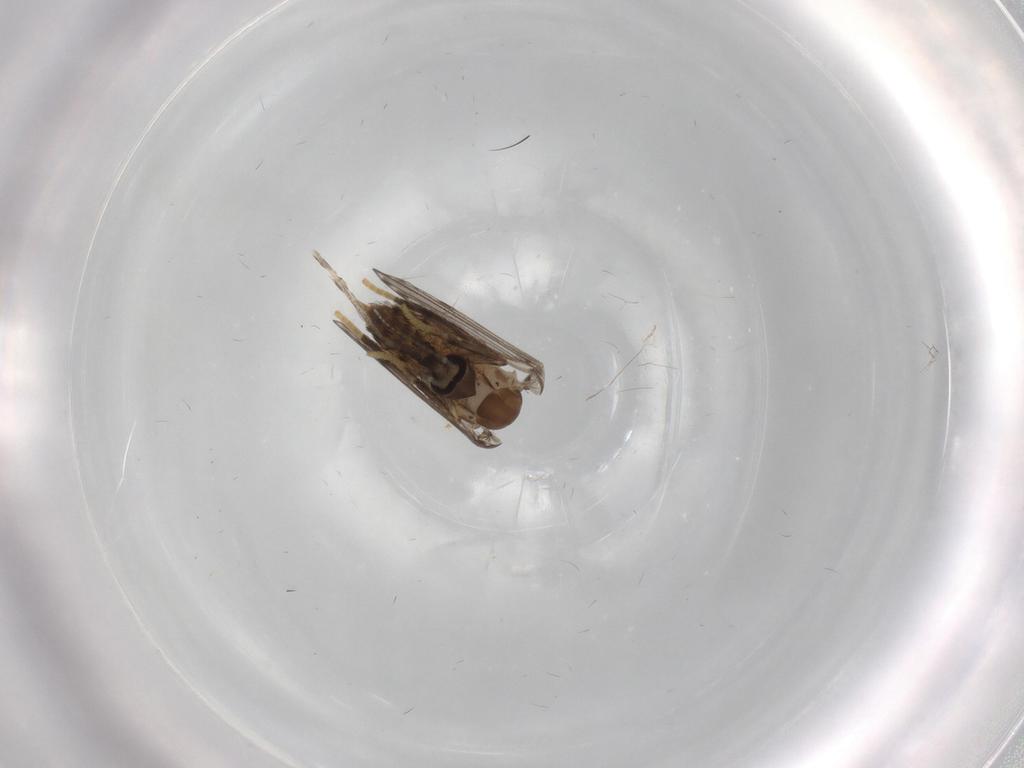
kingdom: Animalia
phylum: Arthropoda
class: Insecta
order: Diptera
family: Psychodidae
